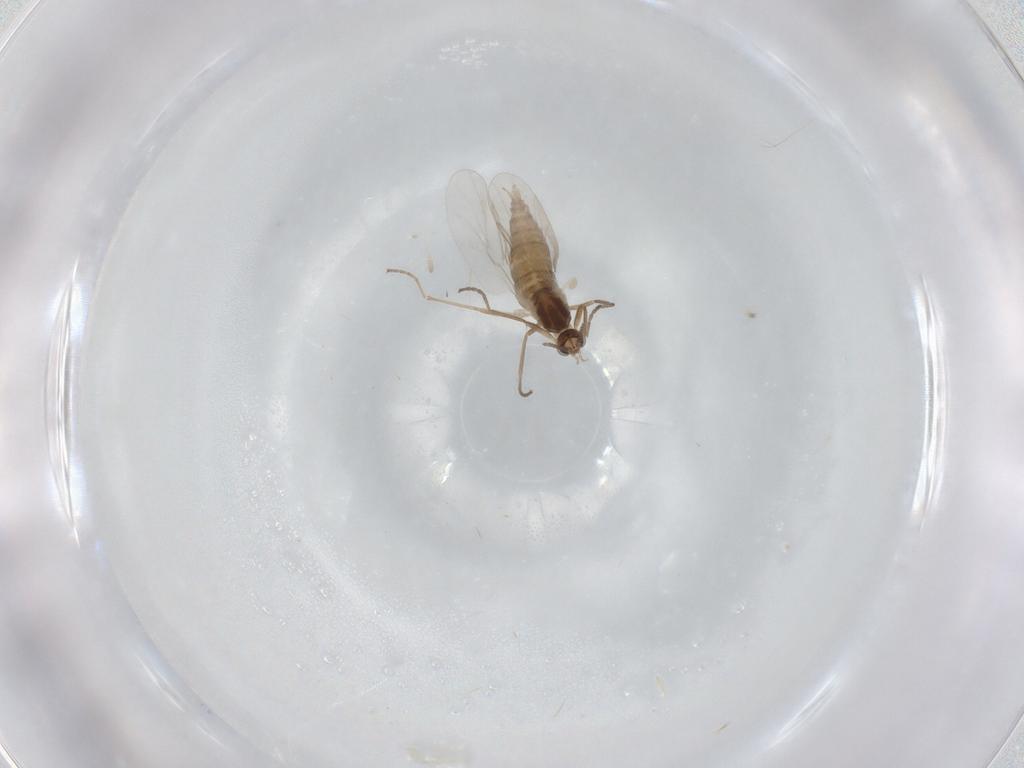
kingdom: Animalia
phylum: Arthropoda
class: Insecta
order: Diptera
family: Cecidomyiidae
